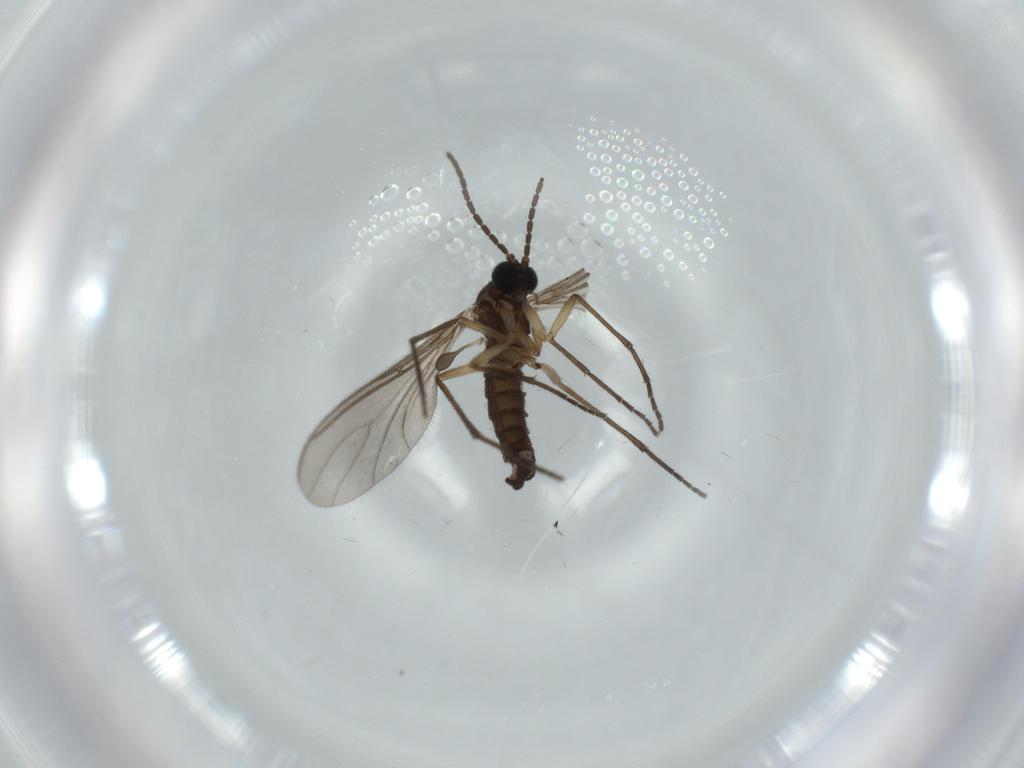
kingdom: Animalia
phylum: Arthropoda
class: Insecta
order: Diptera
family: Sciaridae
